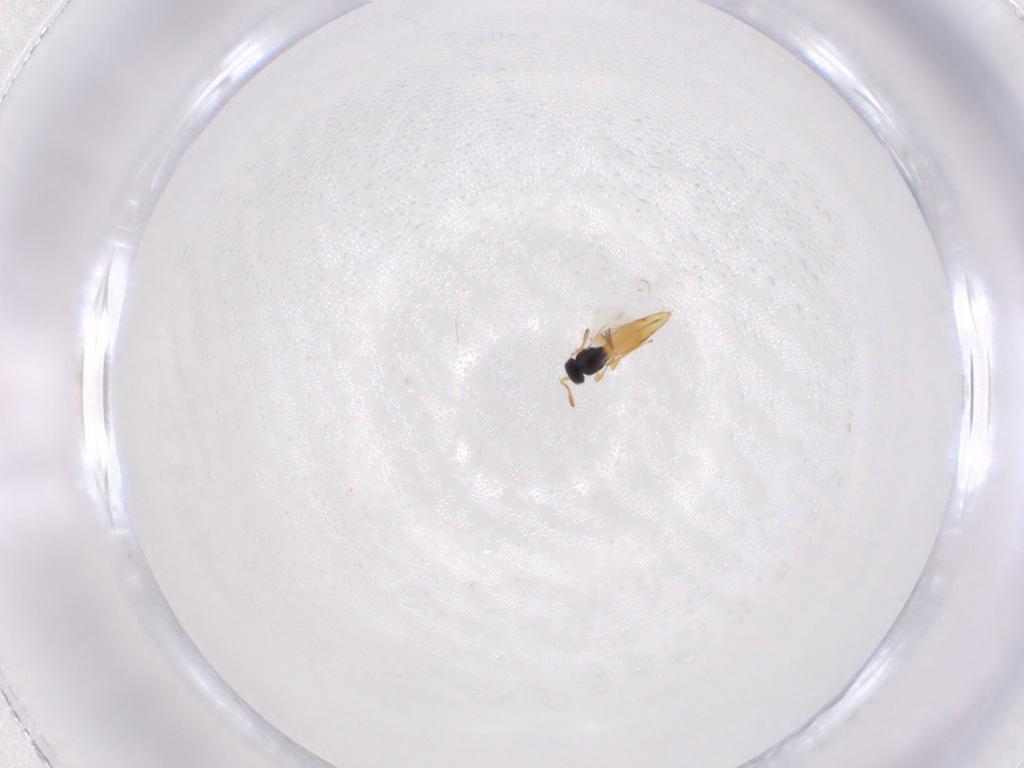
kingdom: Animalia
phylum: Arthropoda
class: Insecta
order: Hymenoptera
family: Scelionidae
